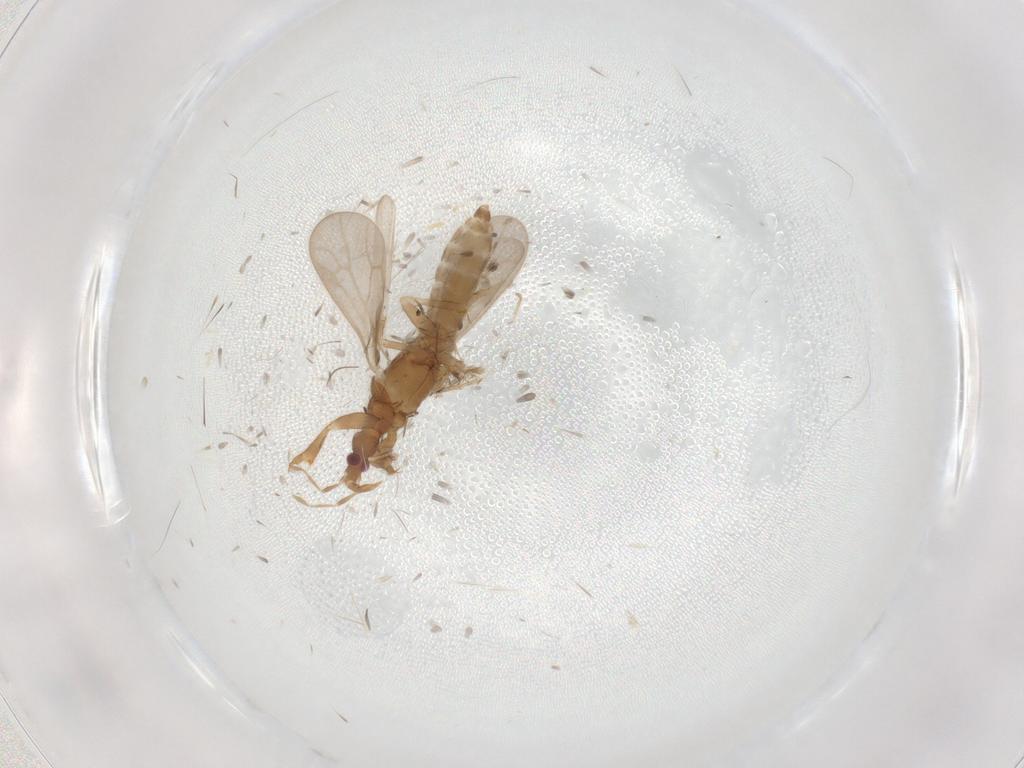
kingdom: Animalia
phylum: Arthropoda
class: Insecta
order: Hemiptera
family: Enicocephalidae
